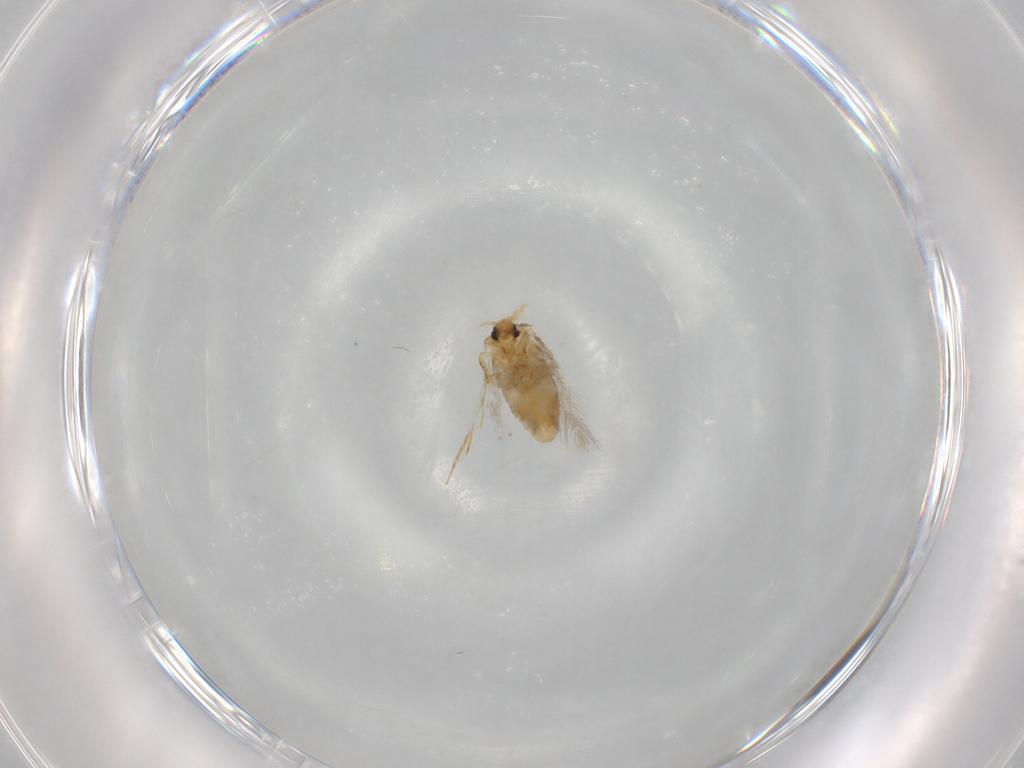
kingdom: Animalia
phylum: Arthropoda
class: Insecta
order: Lepidoptera
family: Nepticulidae
